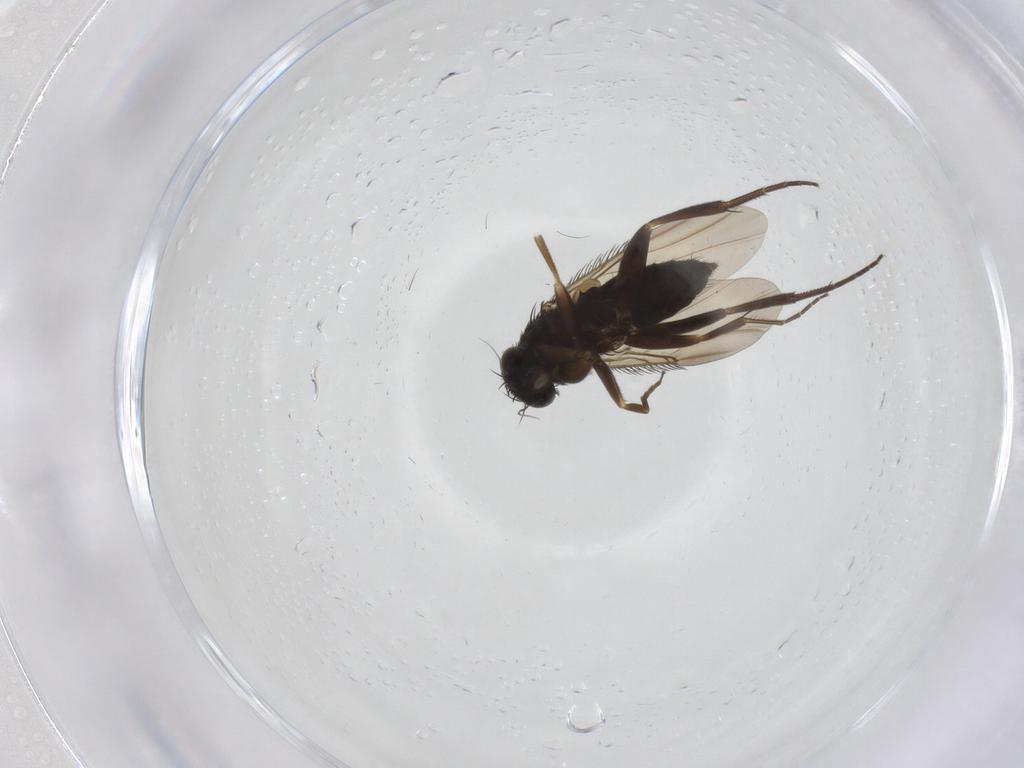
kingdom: Animalia
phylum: Arthropoda
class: Insecta
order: Diptera
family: Phoridae
